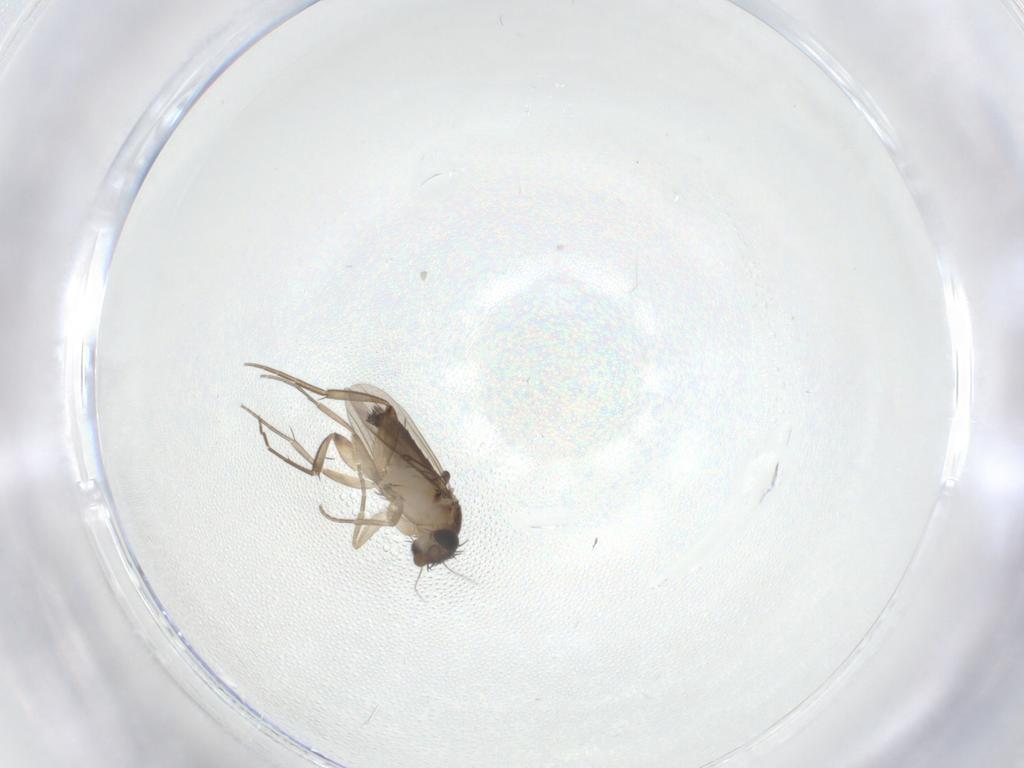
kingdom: Animalia
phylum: Arthropoda
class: Insecta
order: Diptera
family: Phoridae
